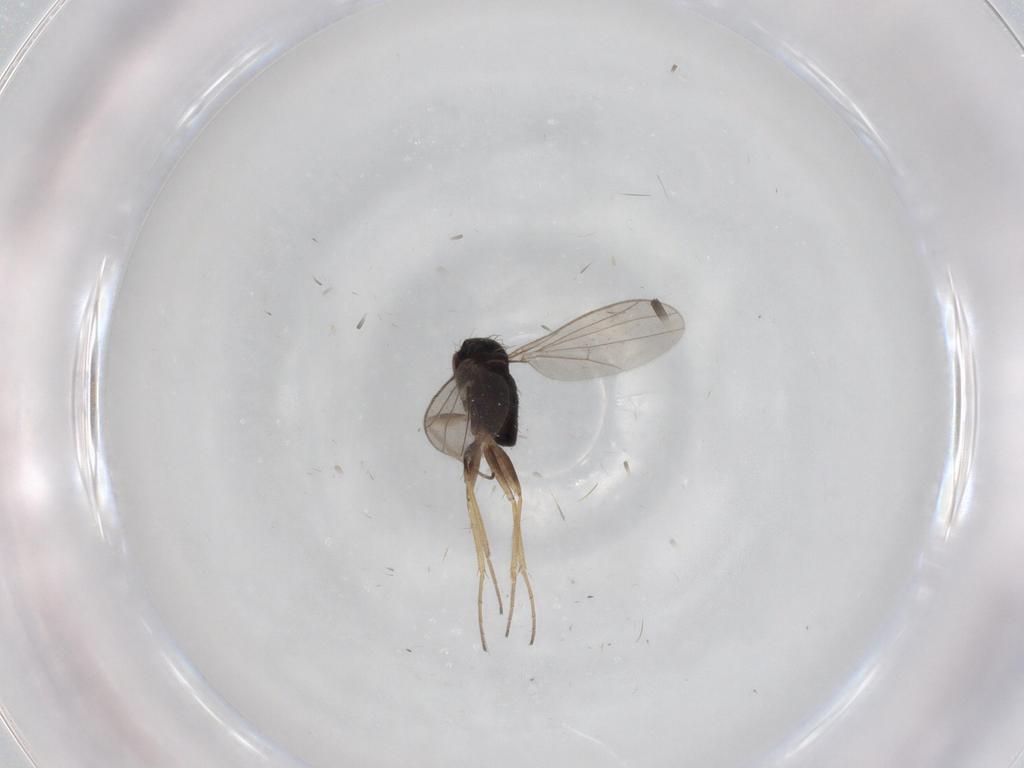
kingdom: Animalia
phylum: Arthropoda
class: Insecta
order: Diptera
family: Dolichopodidae
